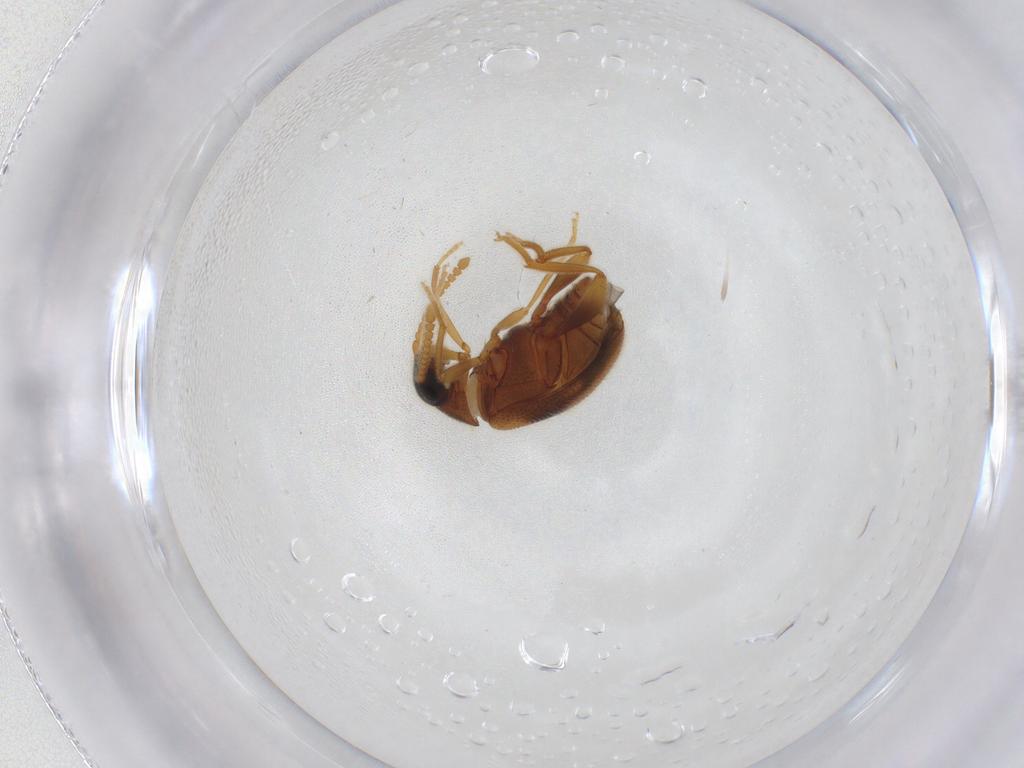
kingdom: Animalia
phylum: Arthropoda
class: Insecta
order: Coleoptera
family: Aderidae
